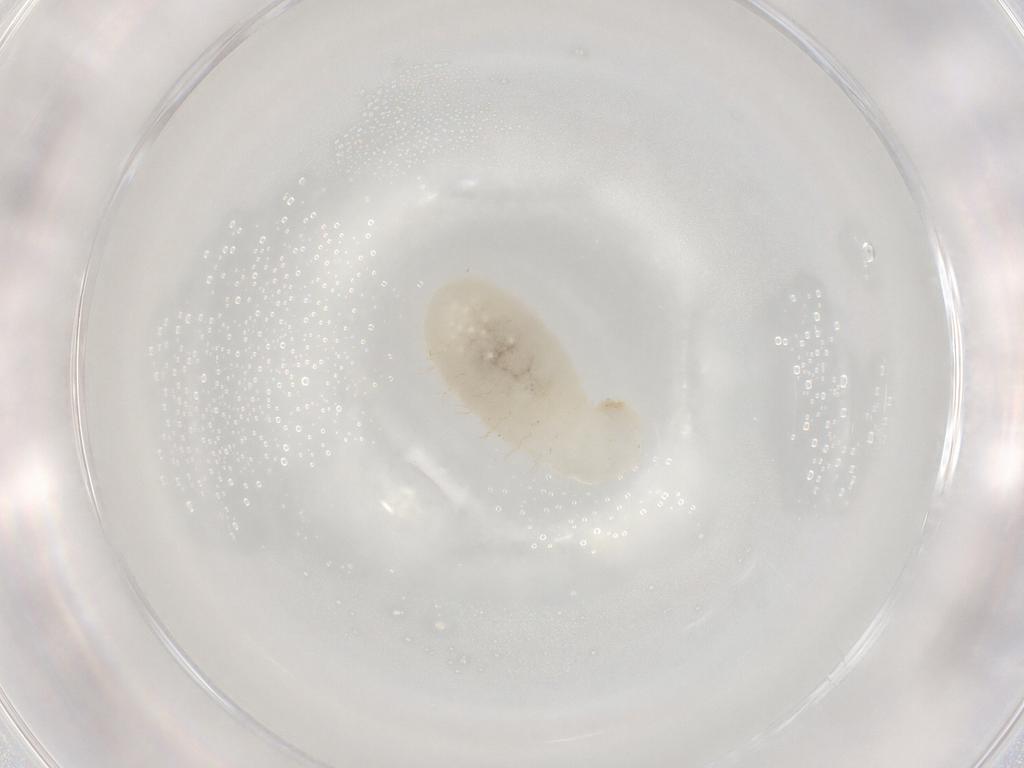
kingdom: Animalia
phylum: Arthropoda
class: Insecta
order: Hymenoptera
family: Formicidae
